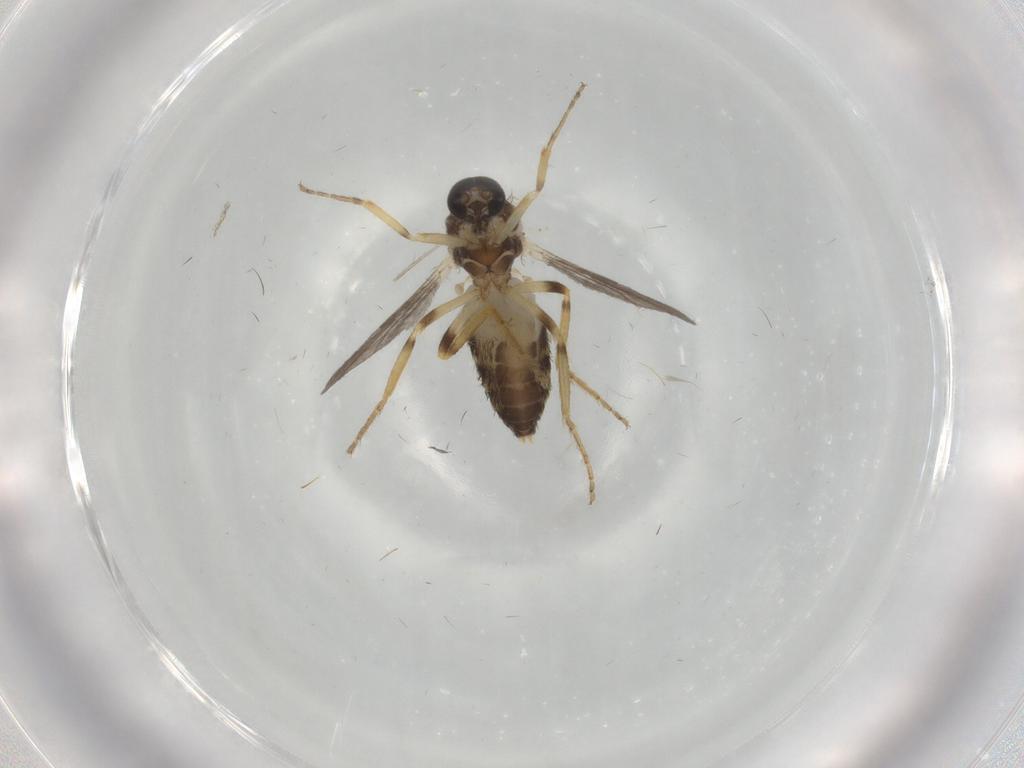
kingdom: Animalia
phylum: Arthropoda
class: Insecta
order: Diptera
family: Ceratopogonidae
